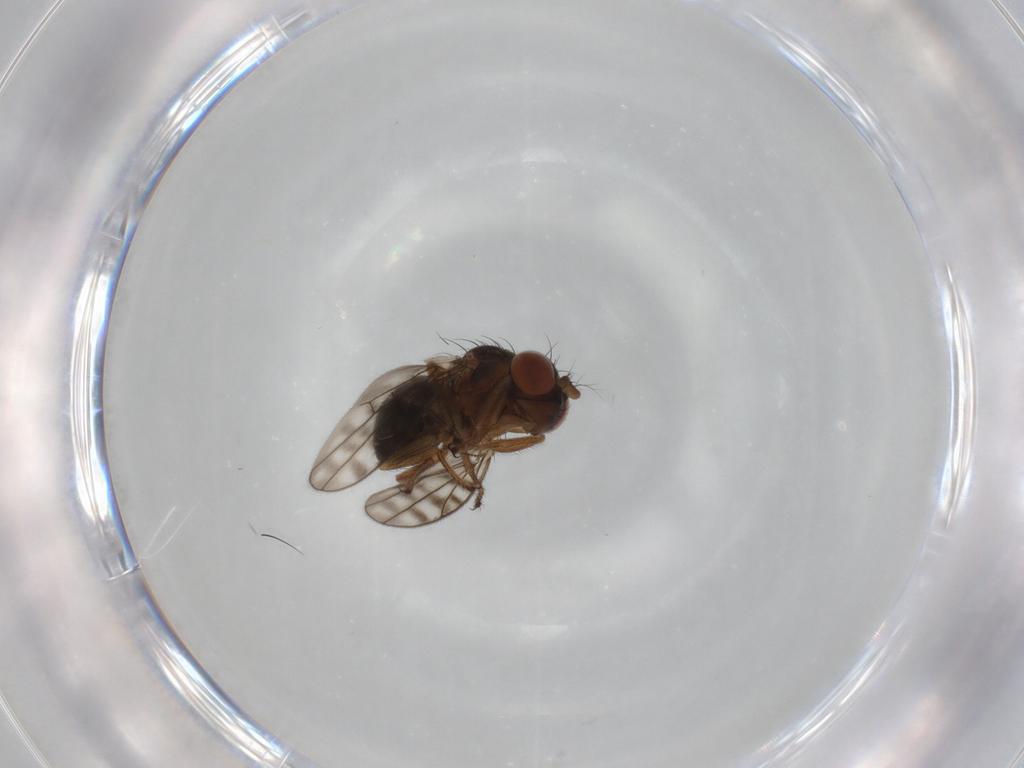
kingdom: Animalia
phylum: Arthropoda
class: Insecta
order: Diptera
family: Ephydridae
